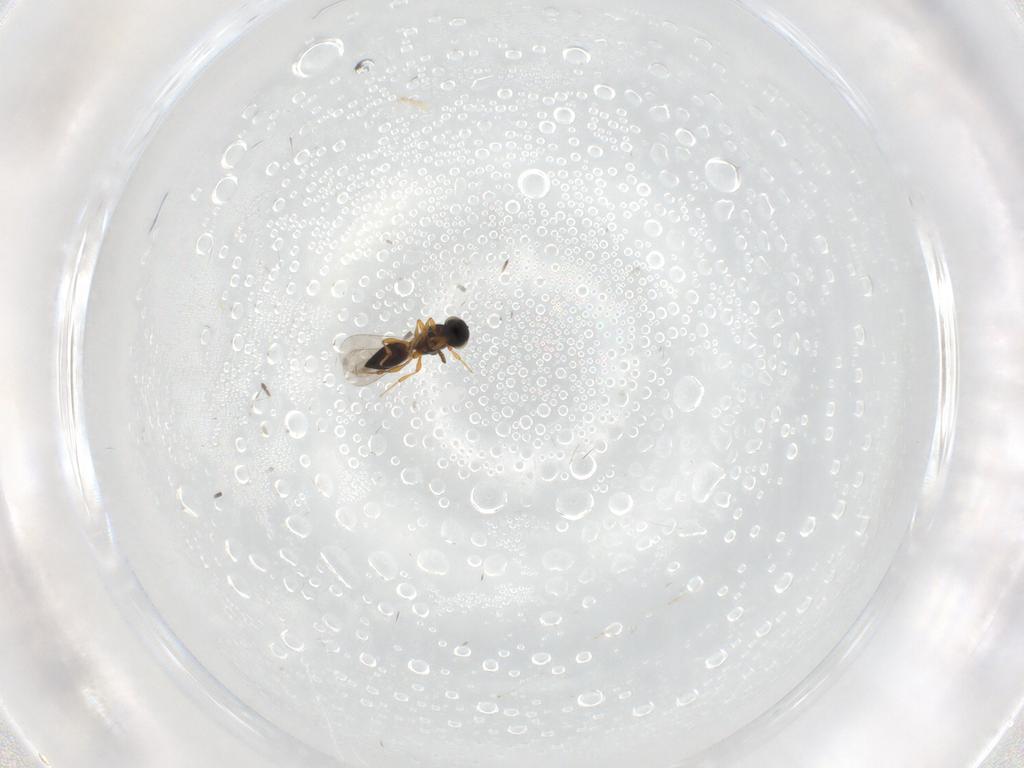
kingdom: Animalia
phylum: Arthropoda
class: Insecta
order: Hymenoptera
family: Platygastridae
